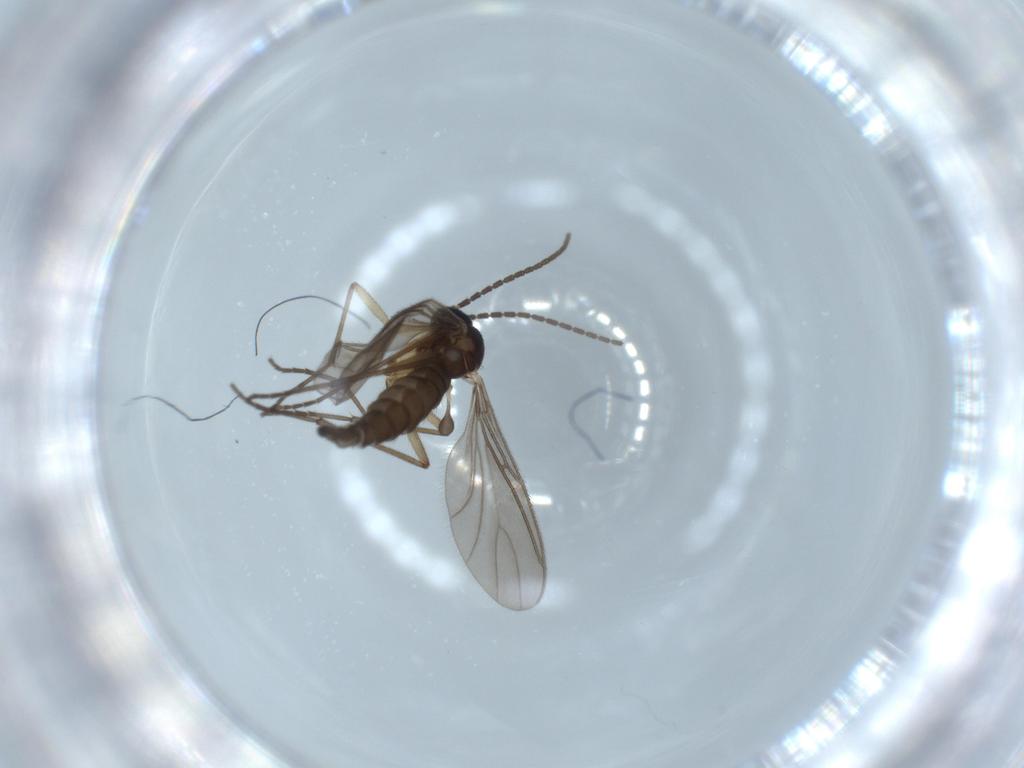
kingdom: Animalia
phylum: Arthropoda
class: Insecta
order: Diptera
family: Sciaridae
